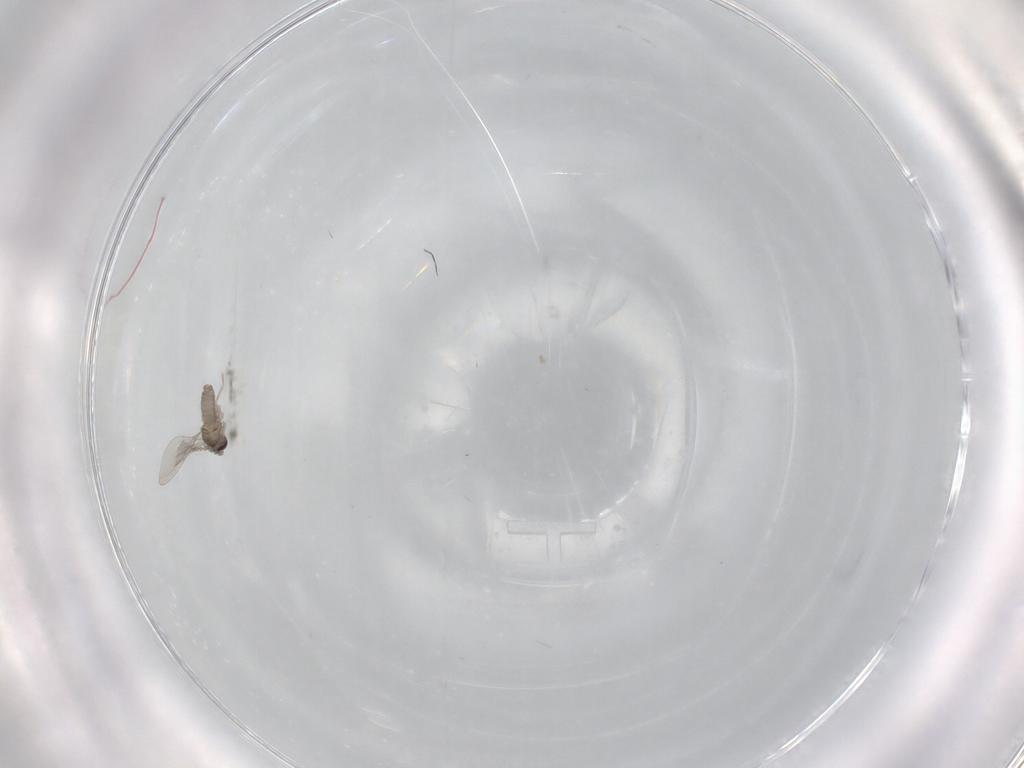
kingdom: Animalia
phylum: Arthropoda
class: Insecta
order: Diptera
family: Cecidomyiidae
